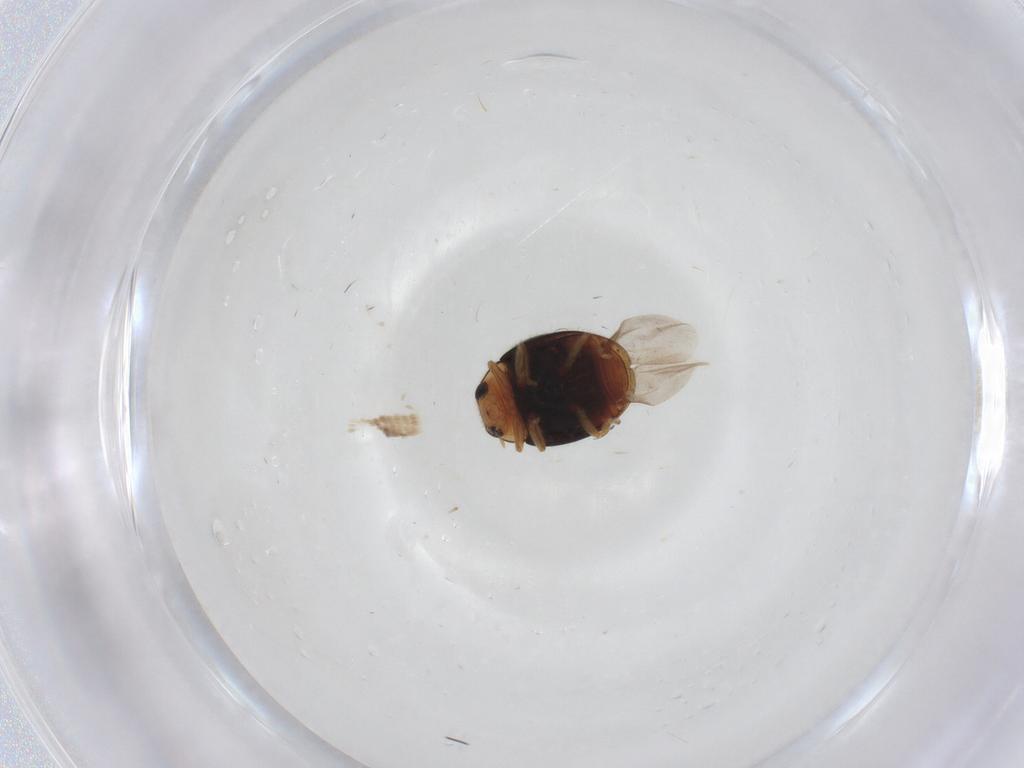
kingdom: Animalia
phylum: Arthropoda
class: Insecta
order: Coleoptera
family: Coccinellidae
